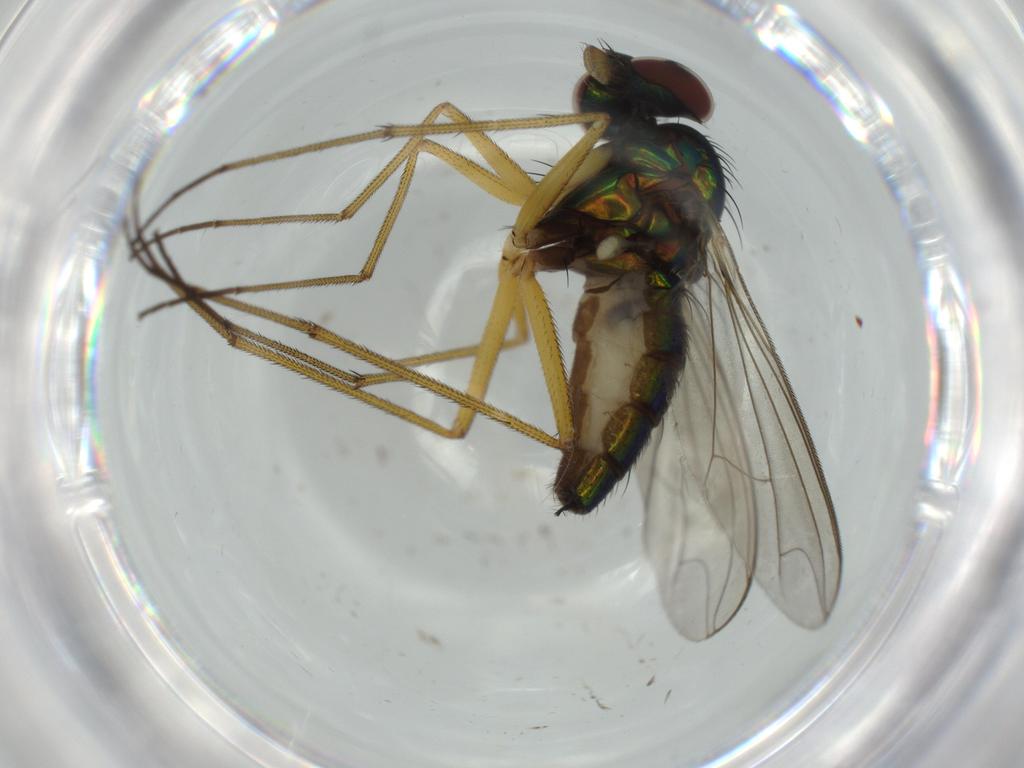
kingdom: Animalia
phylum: Arthropoda
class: Insecta
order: Diptera
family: Dolichopodidae
